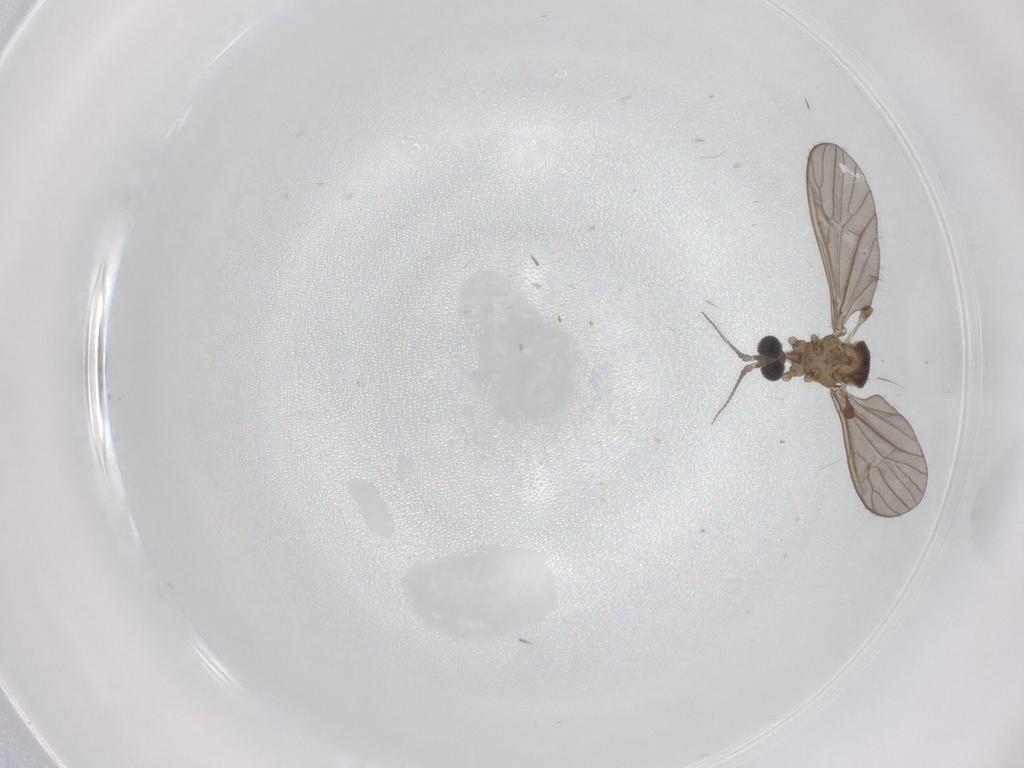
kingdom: Animalia
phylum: Arthropoda
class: Insecta
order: Diptera
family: Limoniidae
